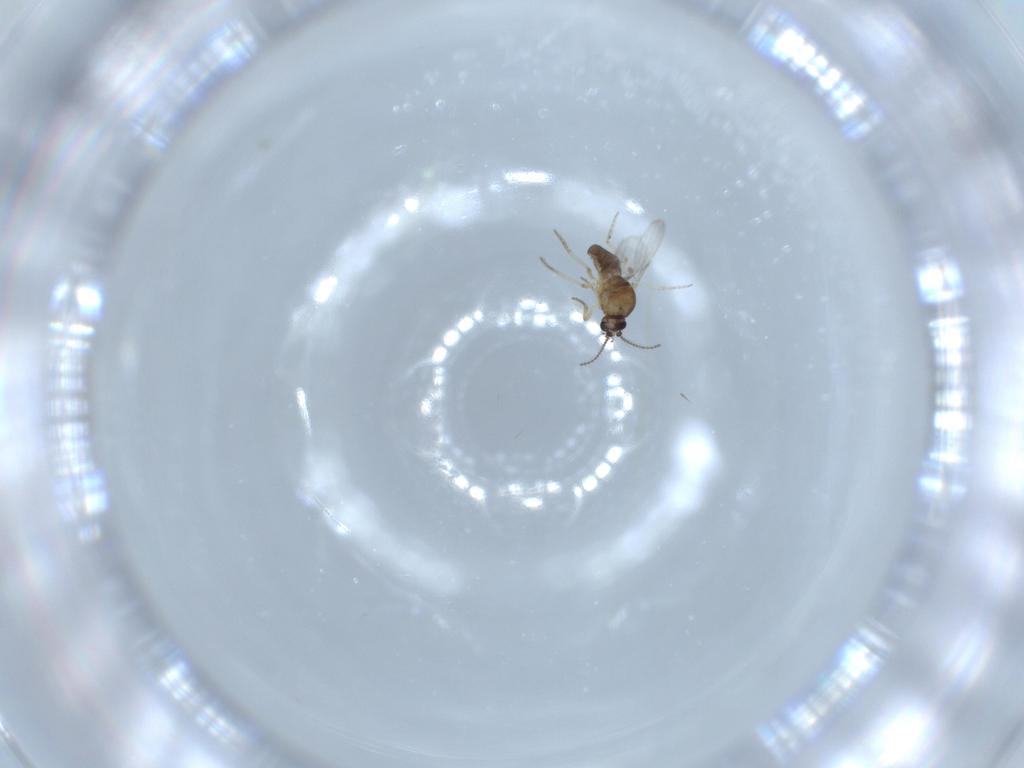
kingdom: Animalia
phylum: Arthropoda
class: Insecta
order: Diptera
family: Ceratopogonidae
